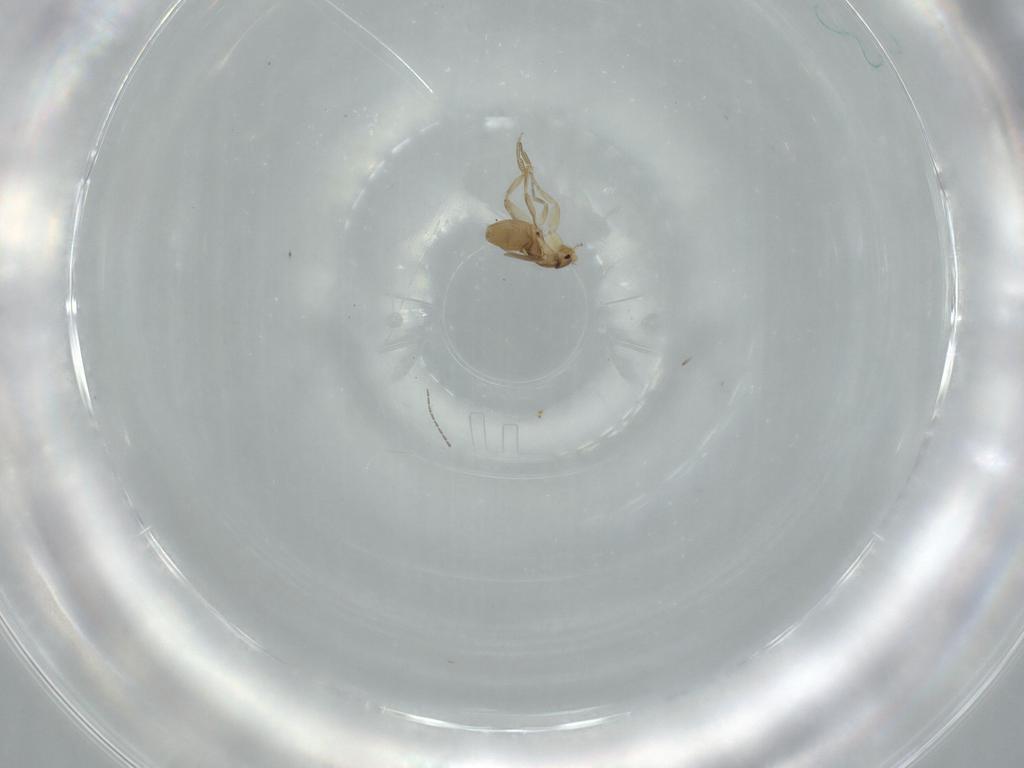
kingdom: Animalia
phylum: Arthropoda
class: Insecta
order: Diptera
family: Phoridae
